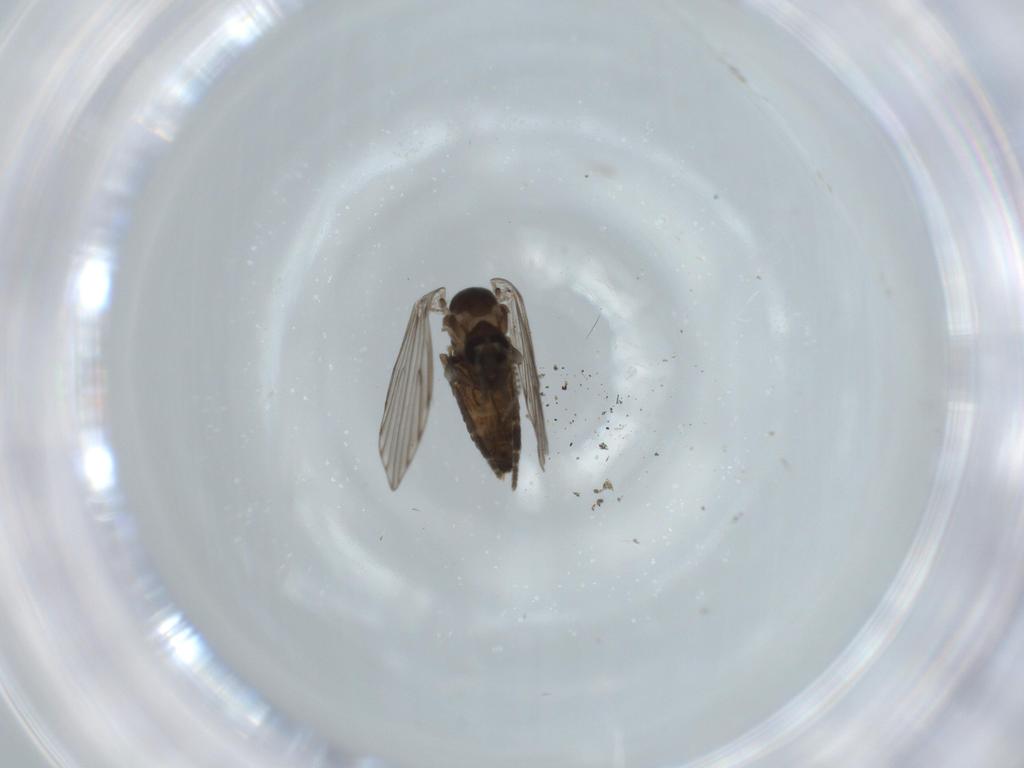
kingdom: Animalia
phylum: Arthropoda
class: Insecta
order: Diptera
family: Psychodidae
